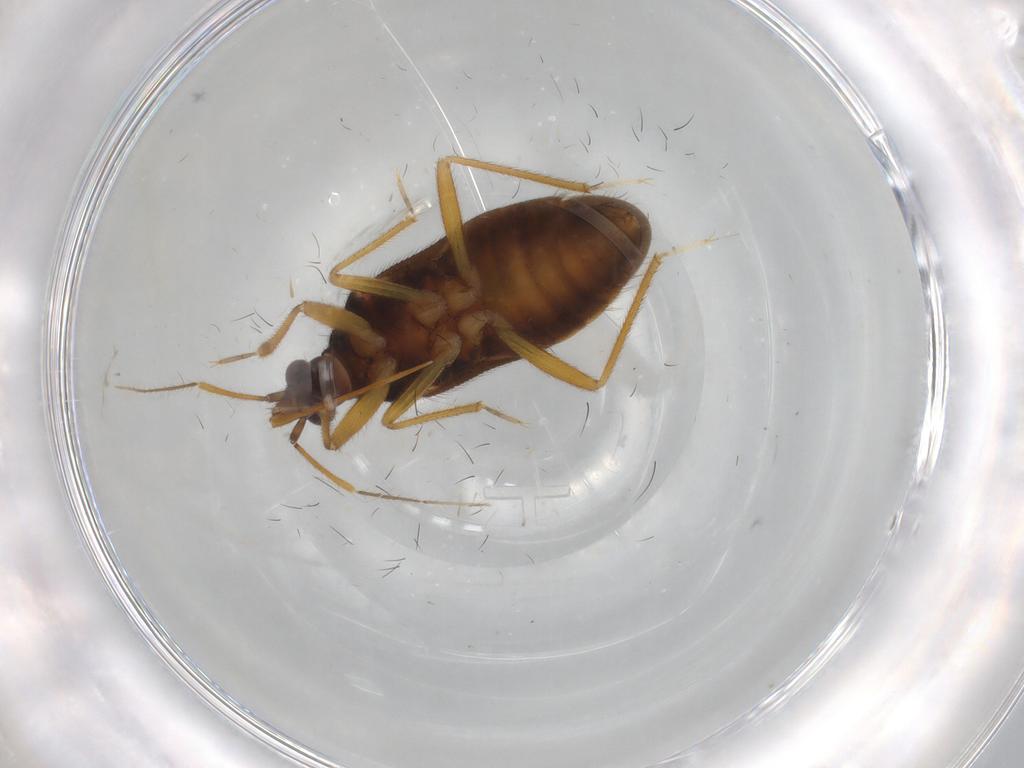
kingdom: Animalia
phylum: Arthropoda
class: Insecta
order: Hemiptera
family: Anthocoridae
